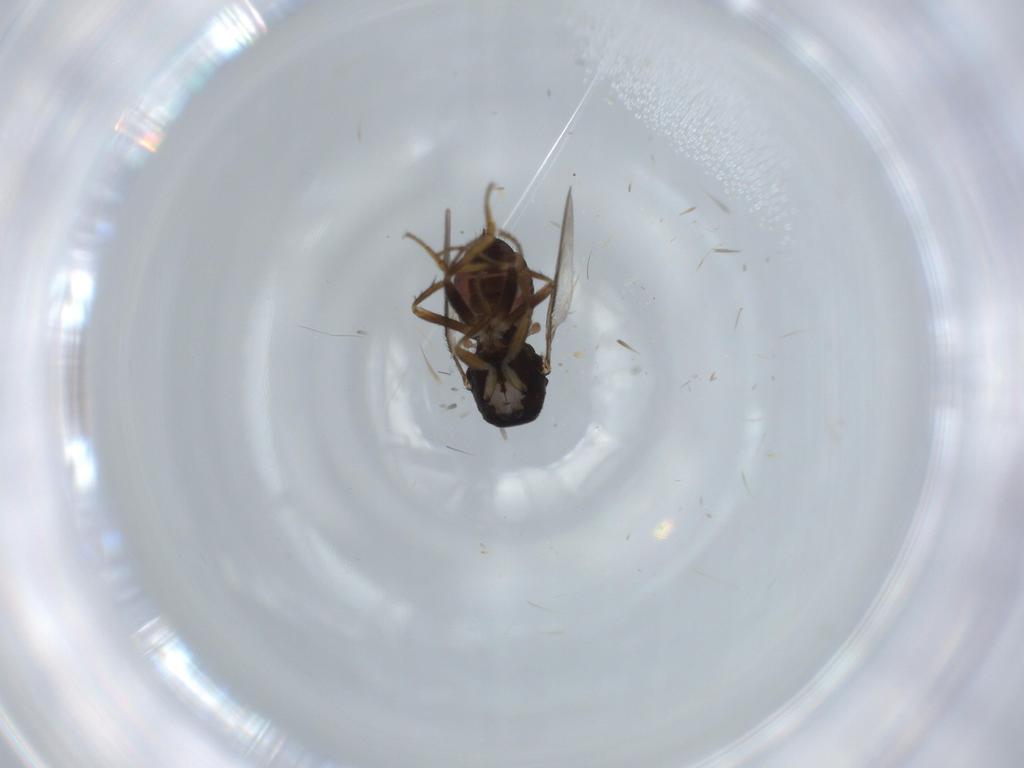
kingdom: Animalia
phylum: Arthropoda
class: Insecta
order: Diptera
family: Sphaeroceridae
